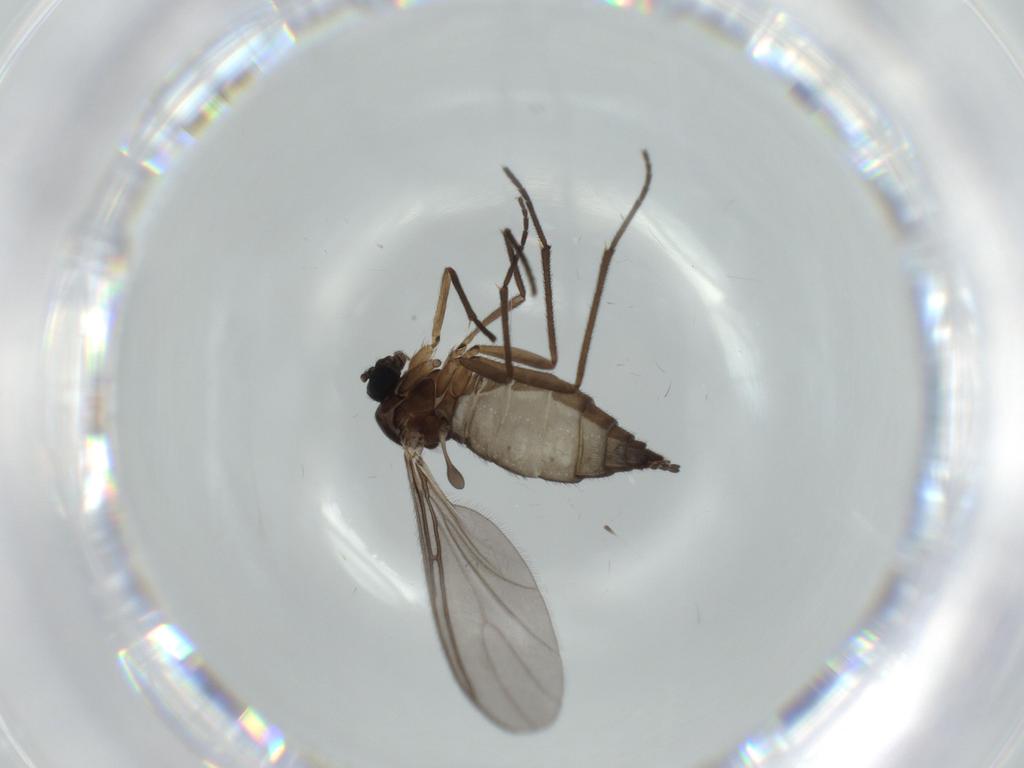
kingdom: Animalia
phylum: Arthropoda
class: Insecta
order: Diptera
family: Sciaridae
